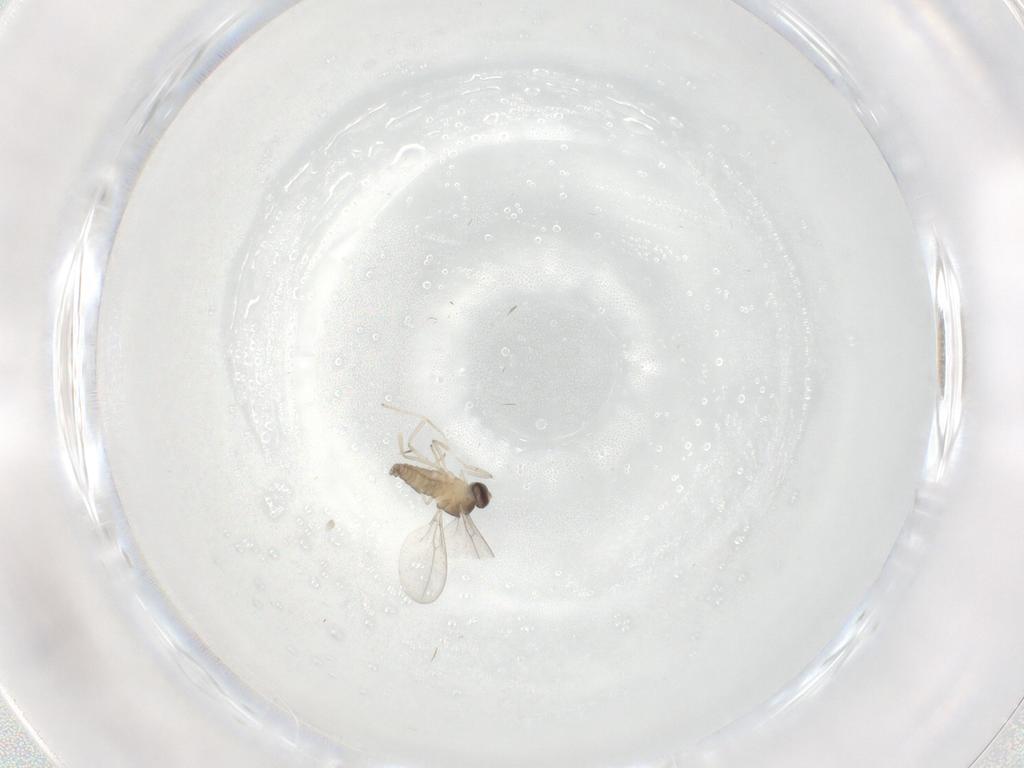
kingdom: Animalia
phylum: Arthropoda
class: Insecta
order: Diptera
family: Cecidomyiidae
